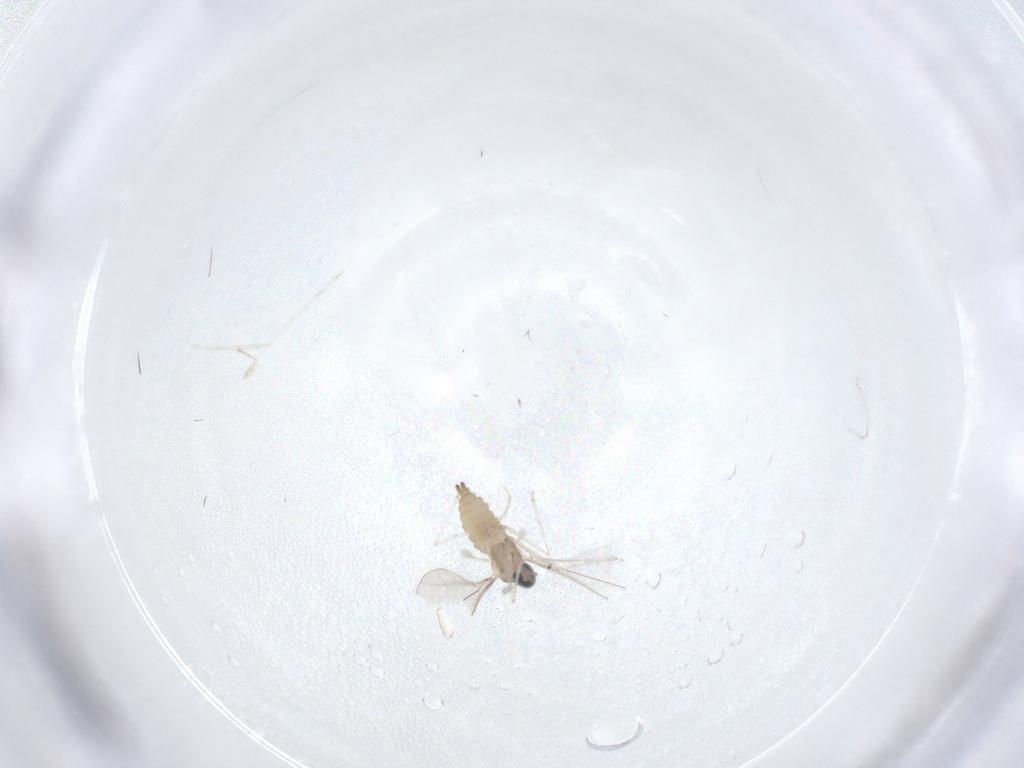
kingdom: Animalia
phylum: Arthropoda
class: Insecta
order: Diptera
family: Cecidomyiidae
